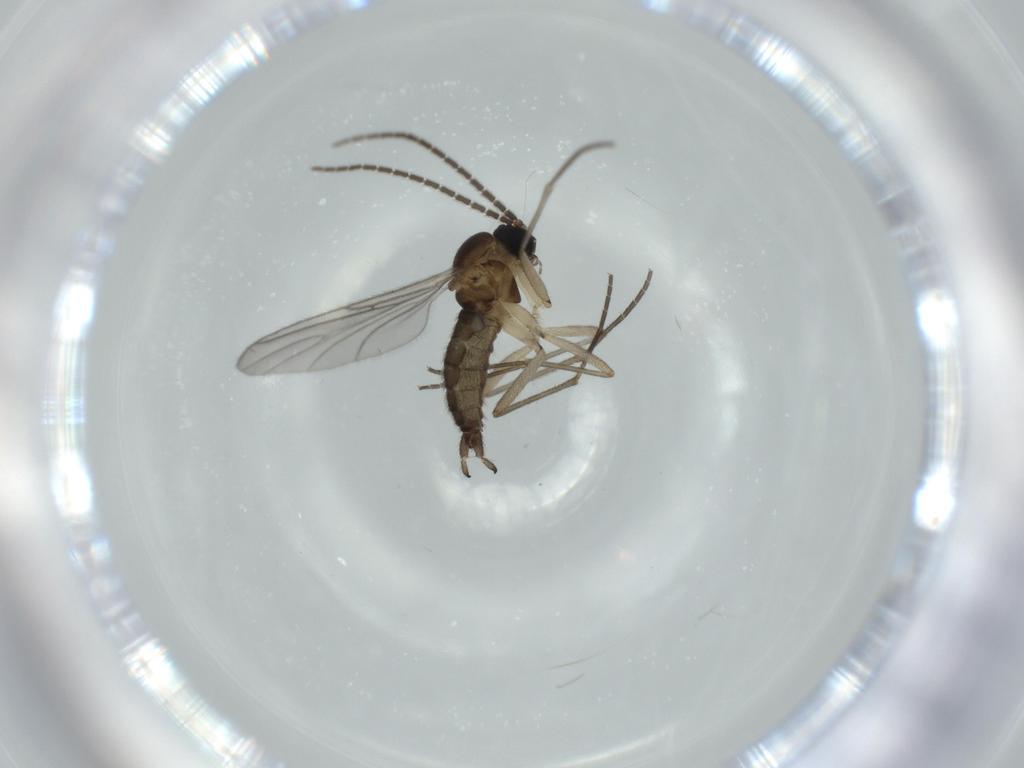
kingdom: Animalia
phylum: Arthropoda
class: Insecta
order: Diptera
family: Sciaridae
